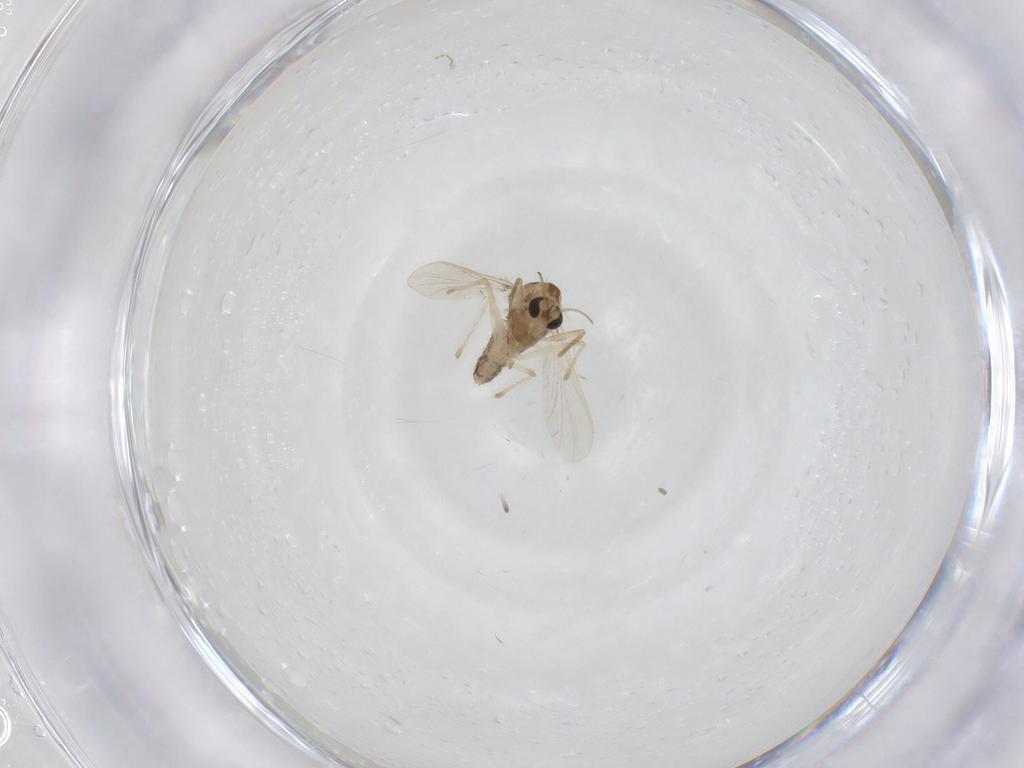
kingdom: Animalia
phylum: Arthropoda
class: Insecta
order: Diptera
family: Chironomidae
